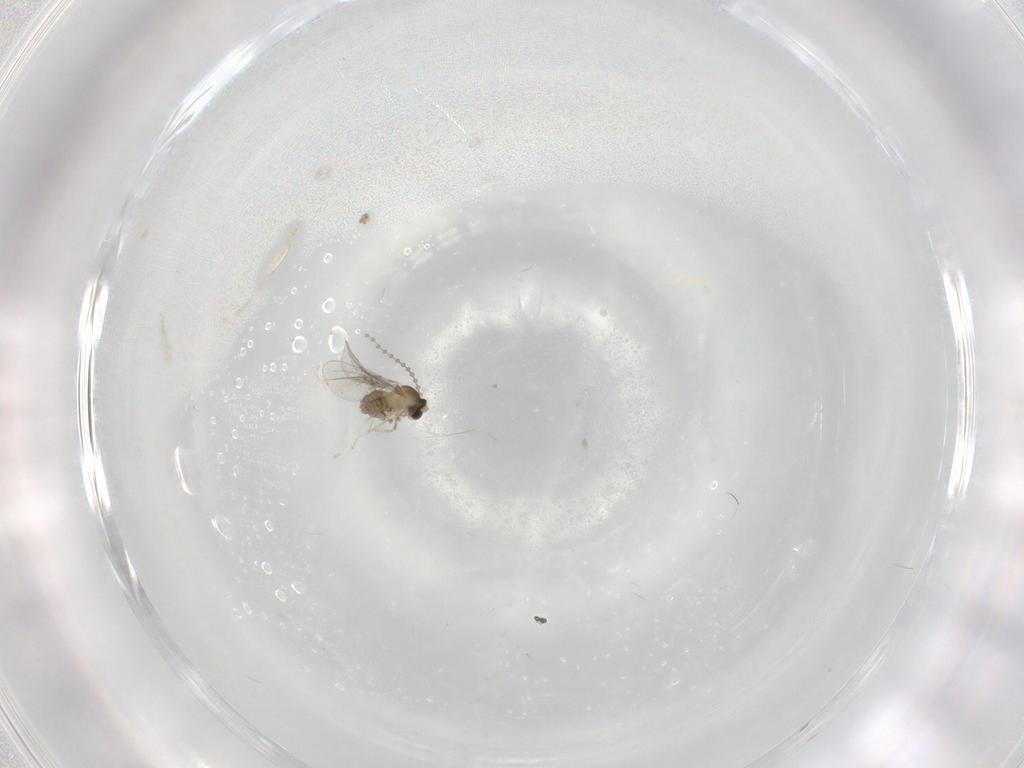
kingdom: Animalia
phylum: Arthropoda
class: Insecta
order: Diptera
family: Cecidomyiidae
